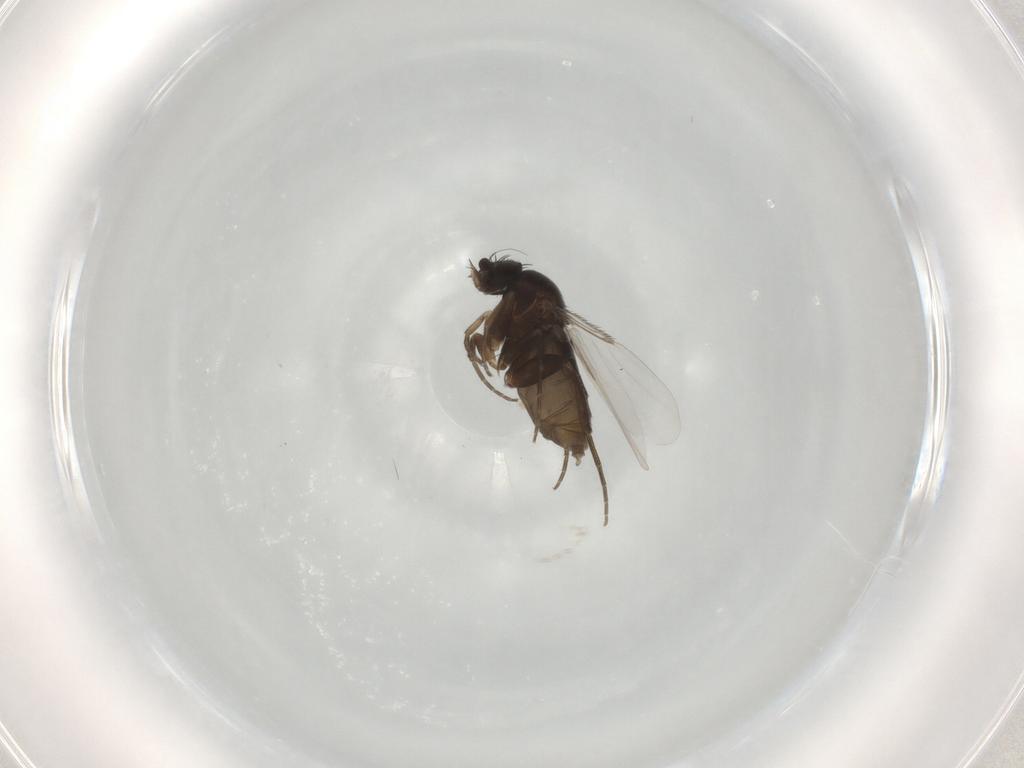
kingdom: Animalia
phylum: Arthropoda
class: Insecta
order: Diptera
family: Phoridae
